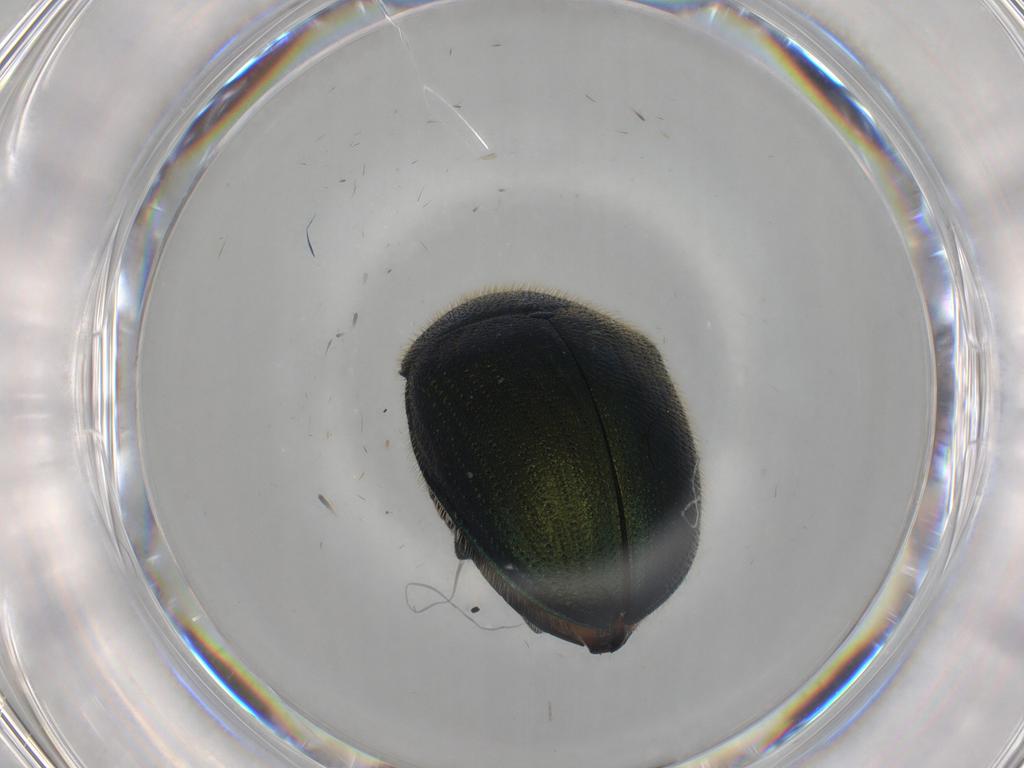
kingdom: Animalia
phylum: Arthropoda
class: Insecta
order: Coleoptera
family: Chrysomelidae
